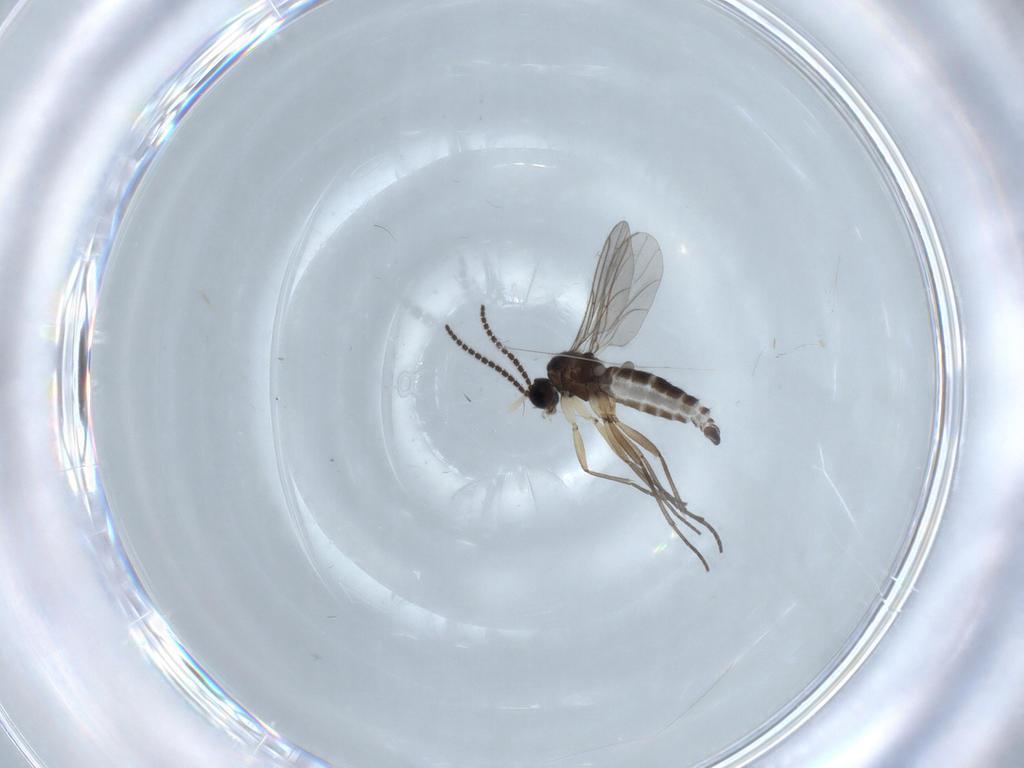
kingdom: Animalia
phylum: Arthropoda
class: Insecta
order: Diptera
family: Sciaridae
